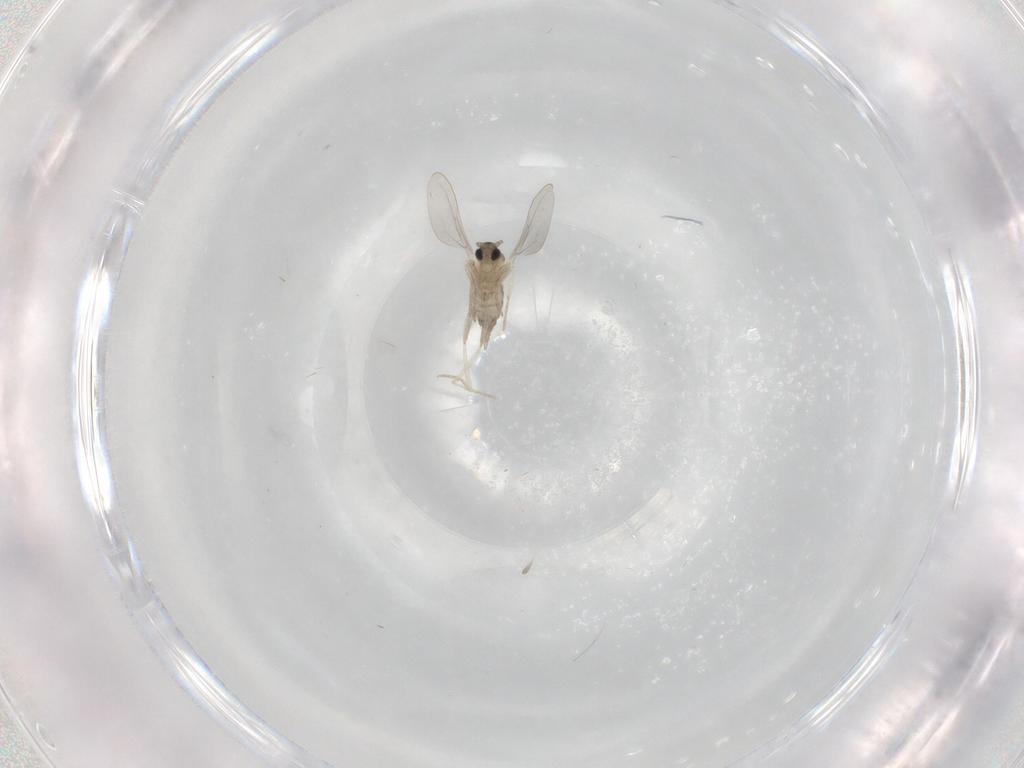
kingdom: Animalia
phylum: Arthropoda
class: Insecta
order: Diptera
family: Cecidomyiidae
